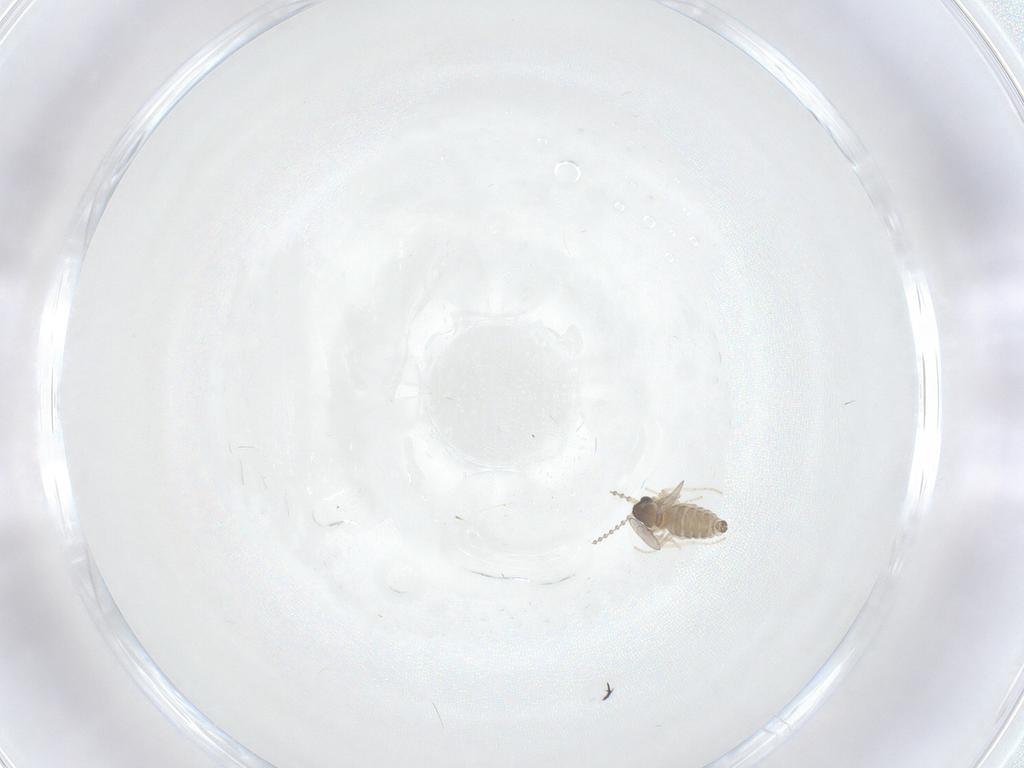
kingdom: Animalia
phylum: Arthropoda
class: Insecta
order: Diptera
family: Cecidomyiidae
